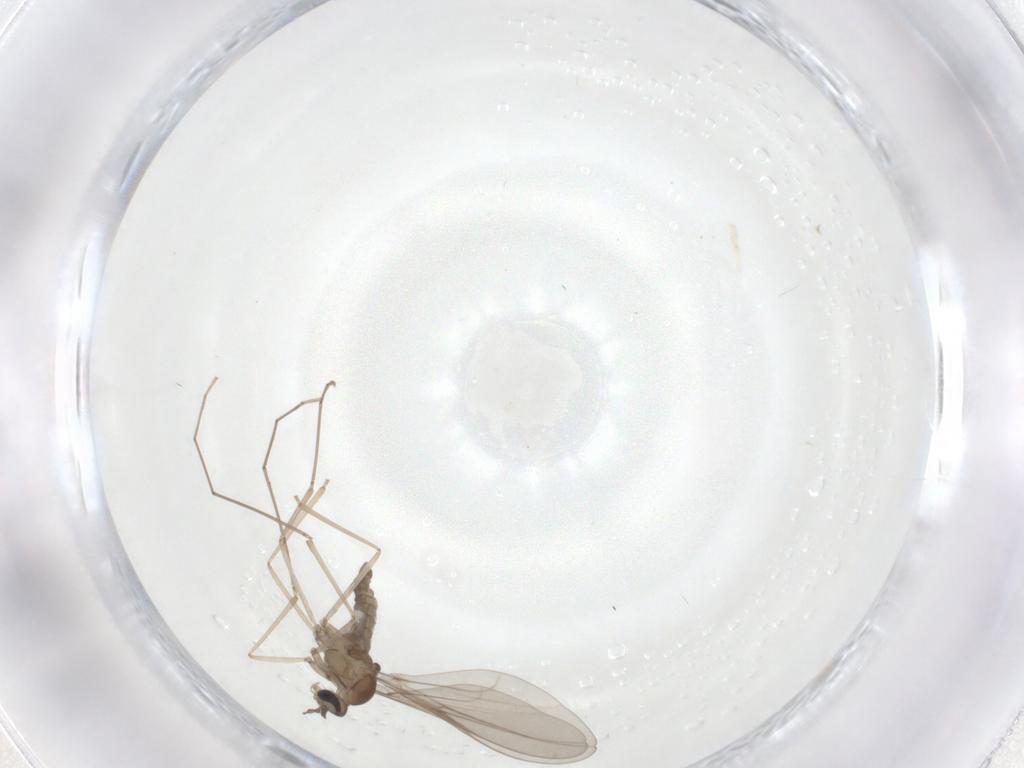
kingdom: Animalia
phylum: Arthropoda
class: Insecta
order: Diptera
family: Cecidomyiidae
